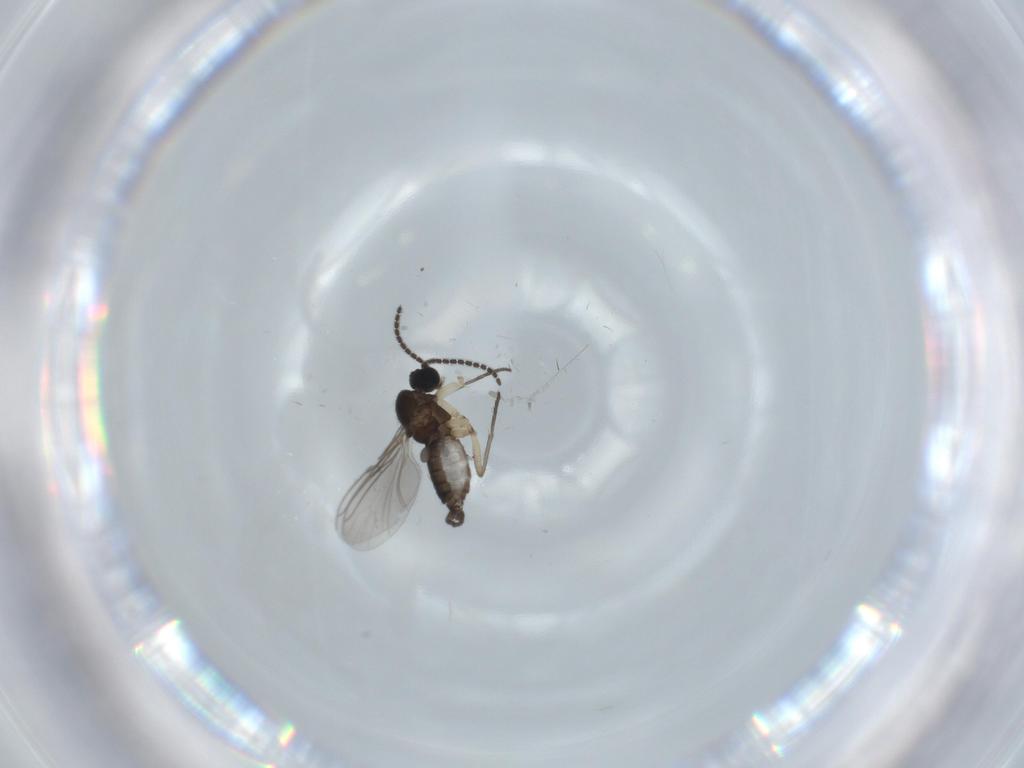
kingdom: Animalia
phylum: Arthropoda
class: Insecta
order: Diptera
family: Sciaridae
